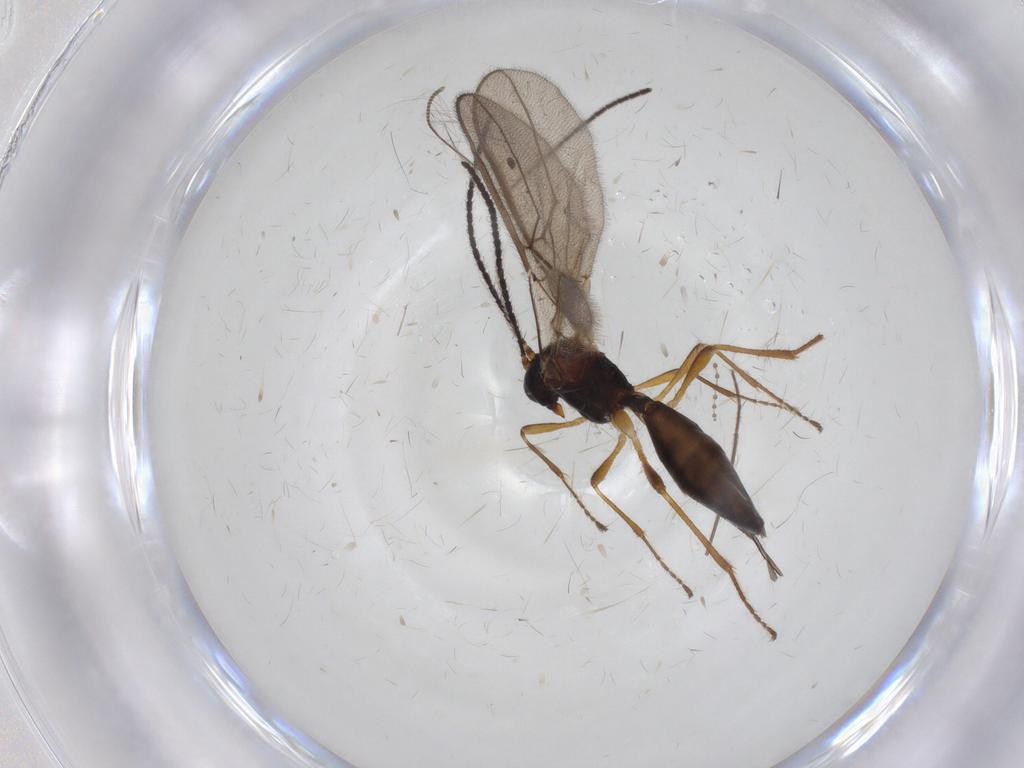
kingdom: Animalia
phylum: Arthropoda
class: Insecta
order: Hymenoptera
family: Braconidae
